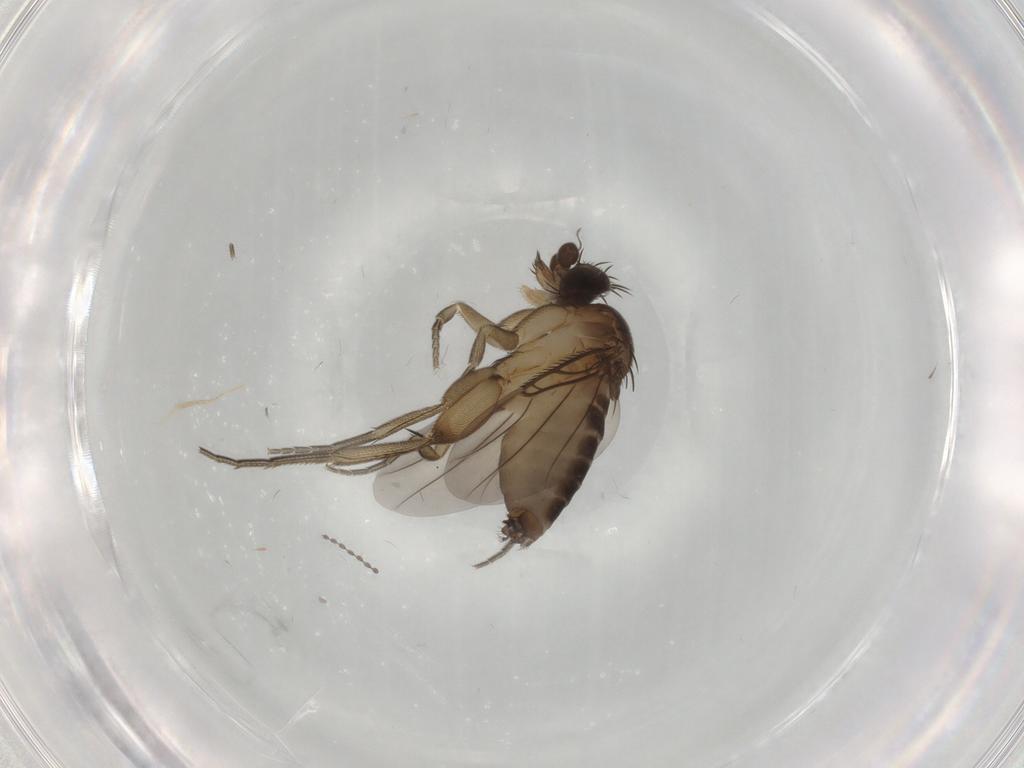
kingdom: Animalia
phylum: Arthropoda
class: Insecta
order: Diptera
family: Phoridae
